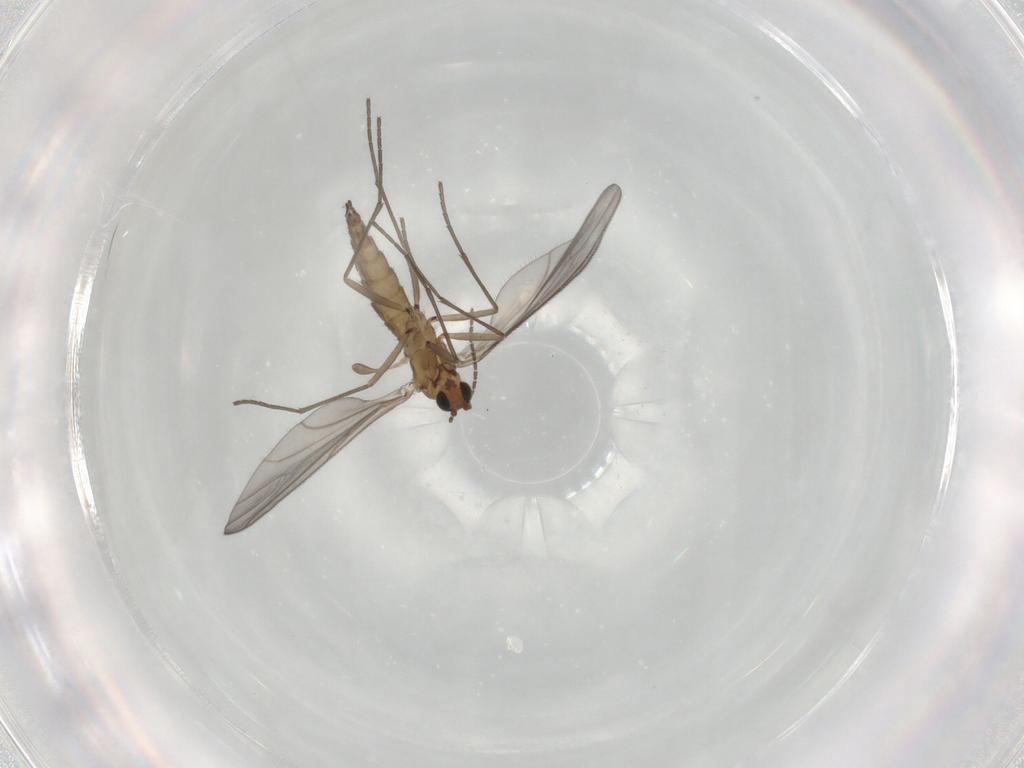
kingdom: Animalia
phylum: Arthropoda
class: Insecta
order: Diptera
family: Sciaridae
